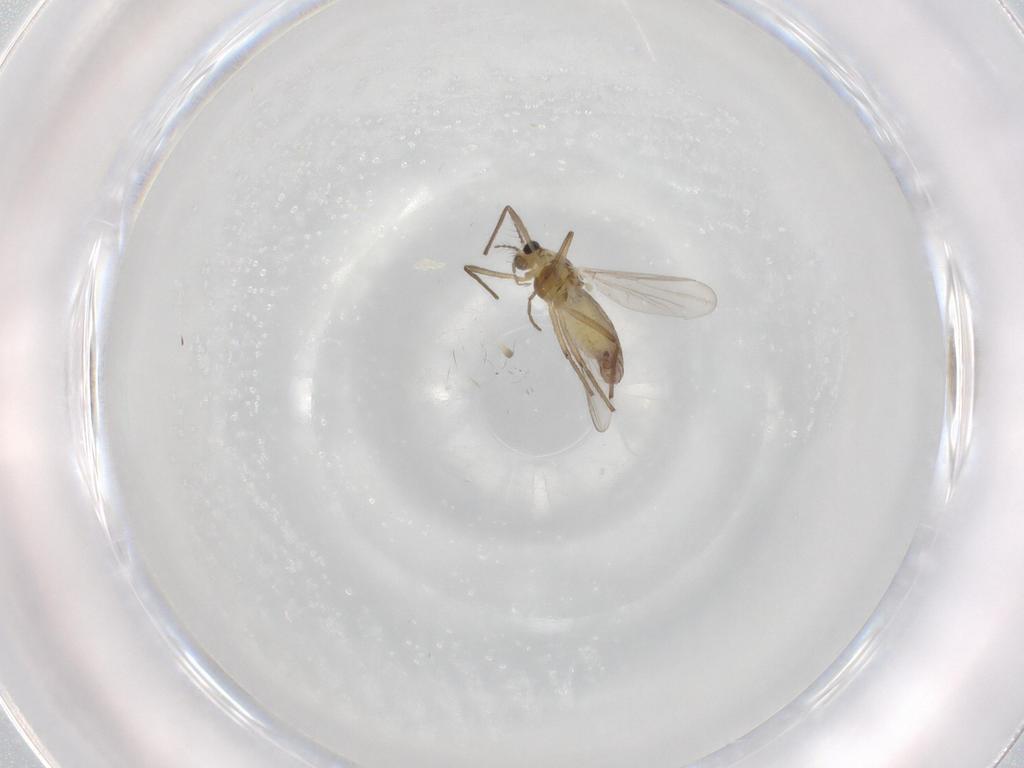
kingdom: Animalia
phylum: Arthropoda
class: Insecta
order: Diptera
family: Chironomidae
